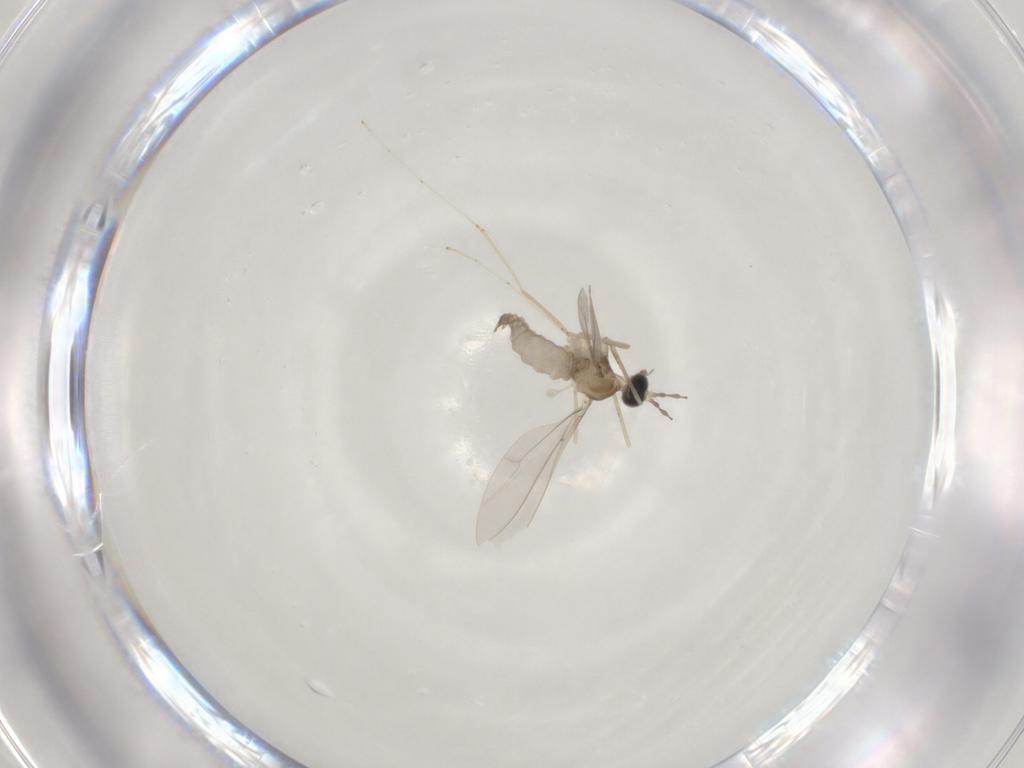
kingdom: Animalia
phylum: Arthropoda
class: Insecta
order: Diptera
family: Cecidomyiidae
